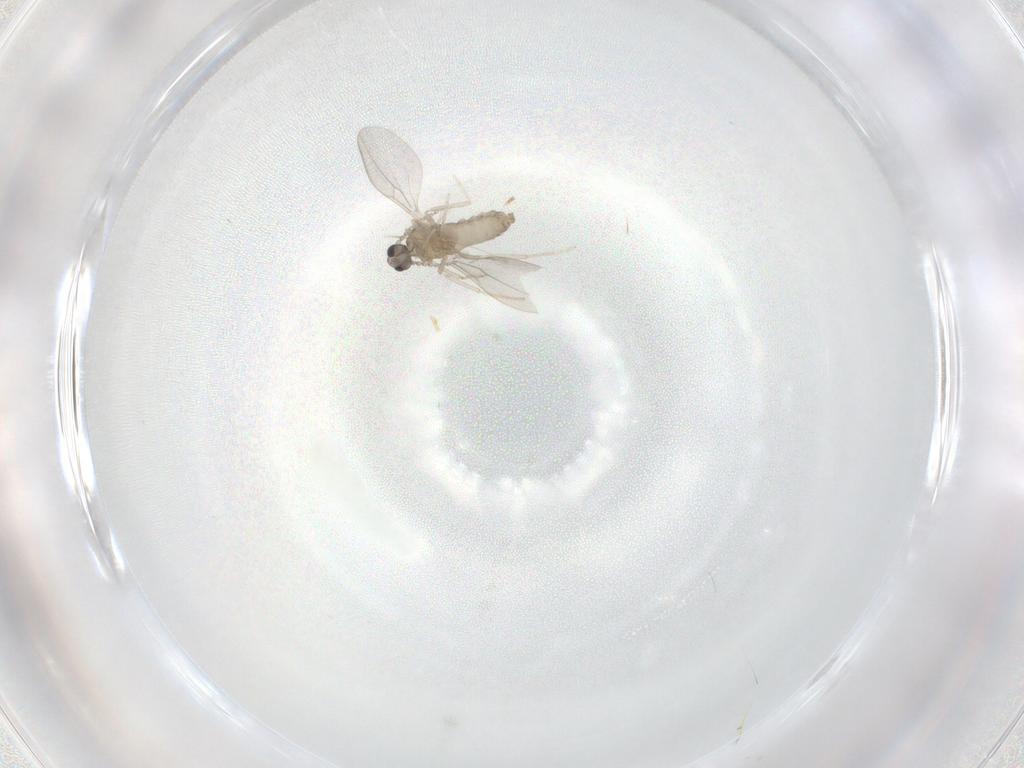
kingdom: Animalia
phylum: Arthropoda
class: Insecta
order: Diptera
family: Cecidomyiidae
